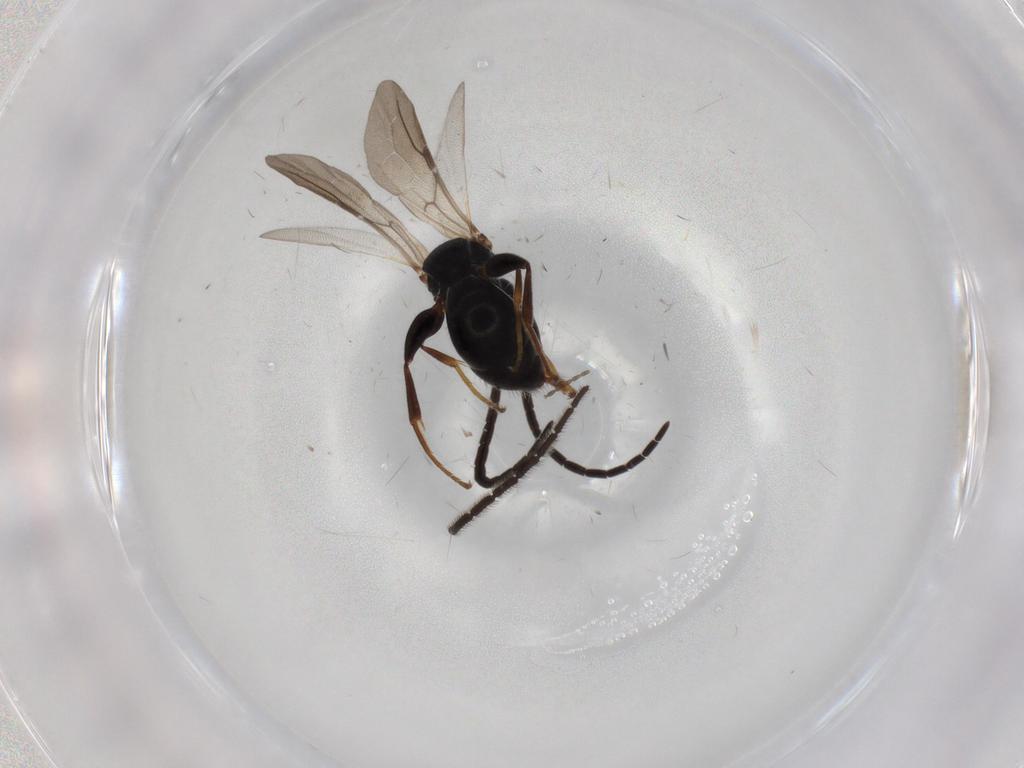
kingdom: Animalia
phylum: Arthropoda
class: Insecta
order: Hymenoptera
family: Bethylidae
